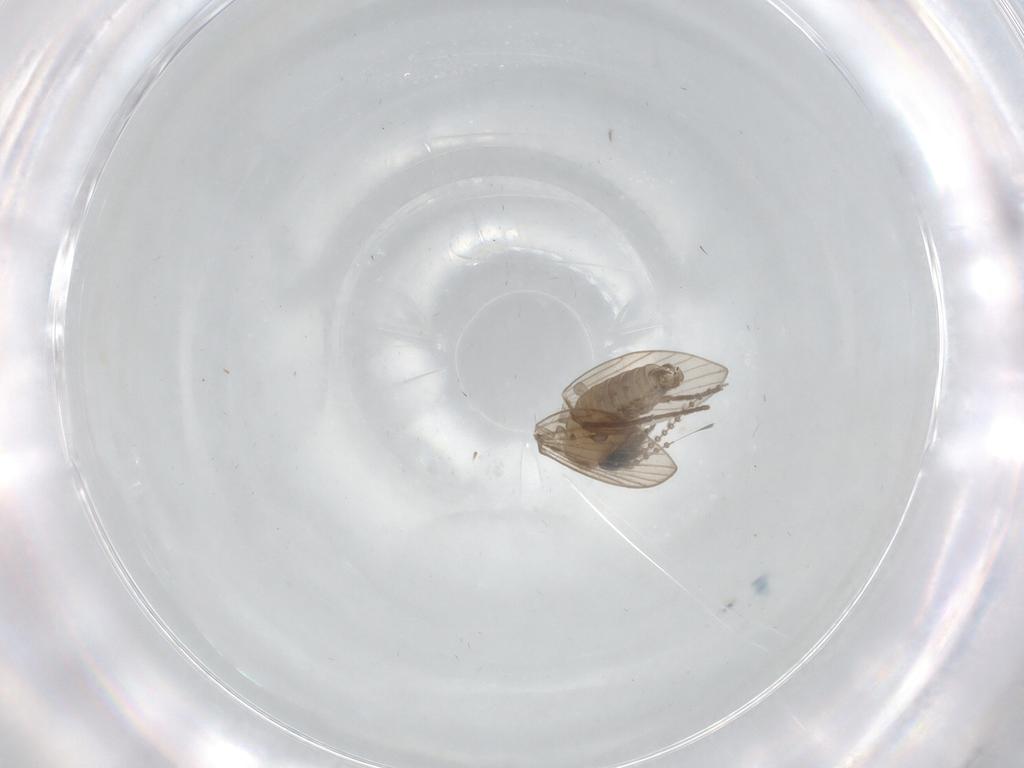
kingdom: Animalia
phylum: Arthropoda
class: Insecta
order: Diptera
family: Psychodidae
